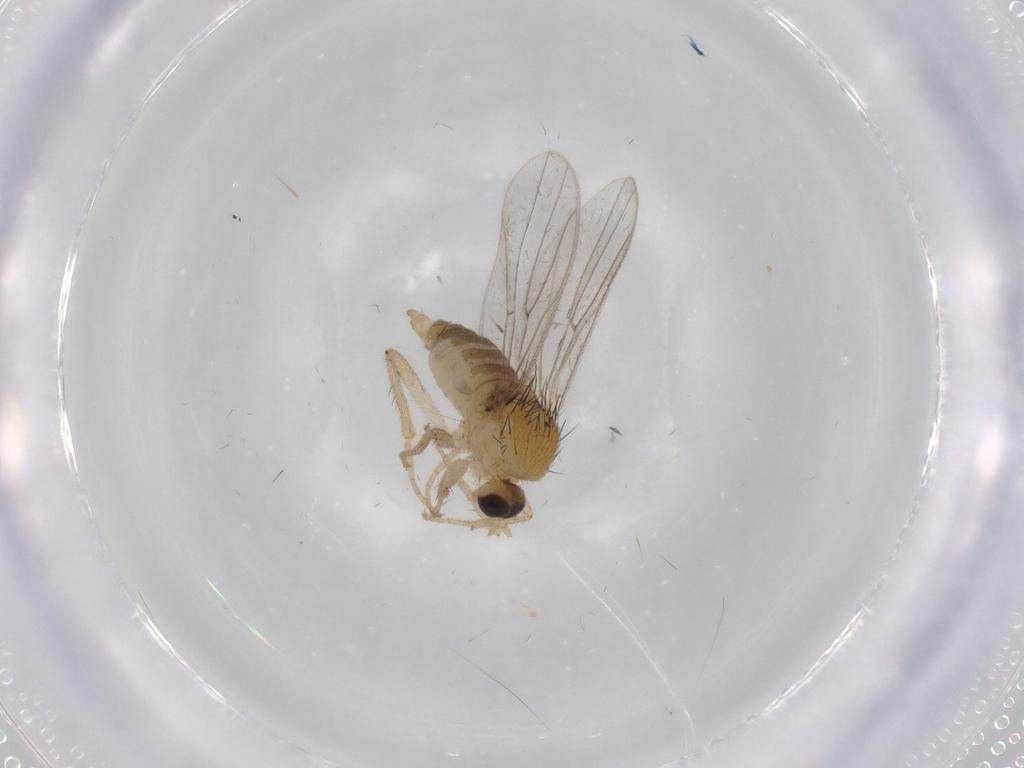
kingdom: Animalia
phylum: Arthropoda
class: Insecta
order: Diptera
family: Hybotidae
